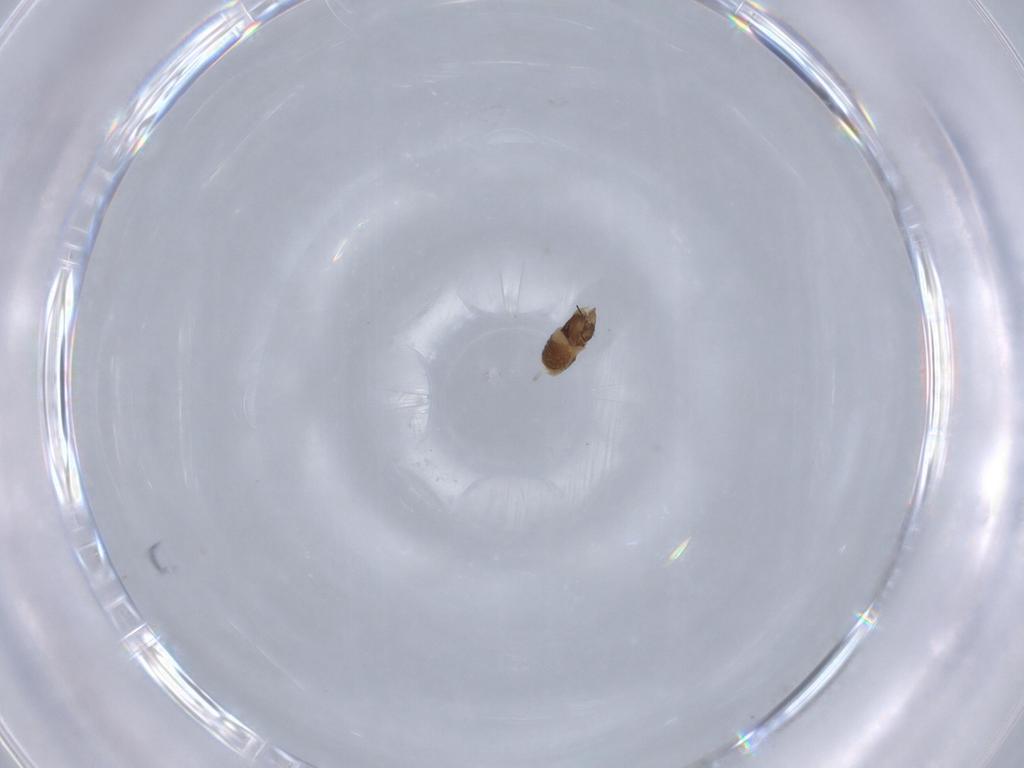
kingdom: Animalia
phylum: Arthropoda
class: Insecta
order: Diptera
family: Chironomidae
